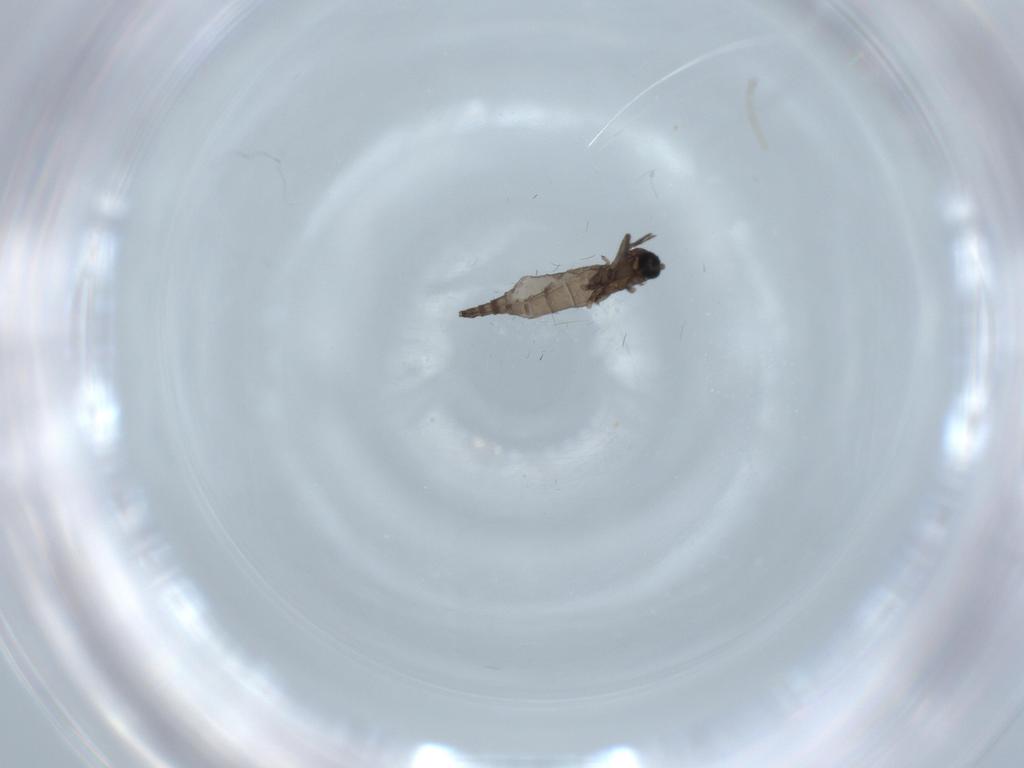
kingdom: Animalia
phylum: Arthropoda
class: Insecta
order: Diptera
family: Sciaridae
